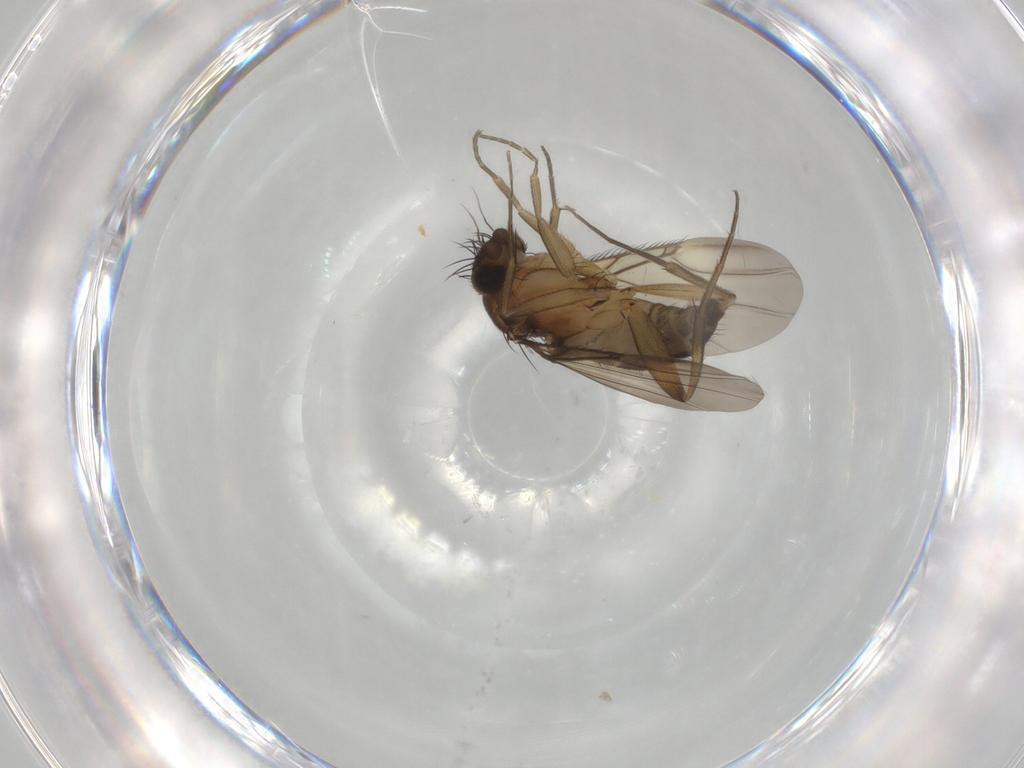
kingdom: Animalia
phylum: Arthropoda
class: Insecta
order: Diptera
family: Phoridae
